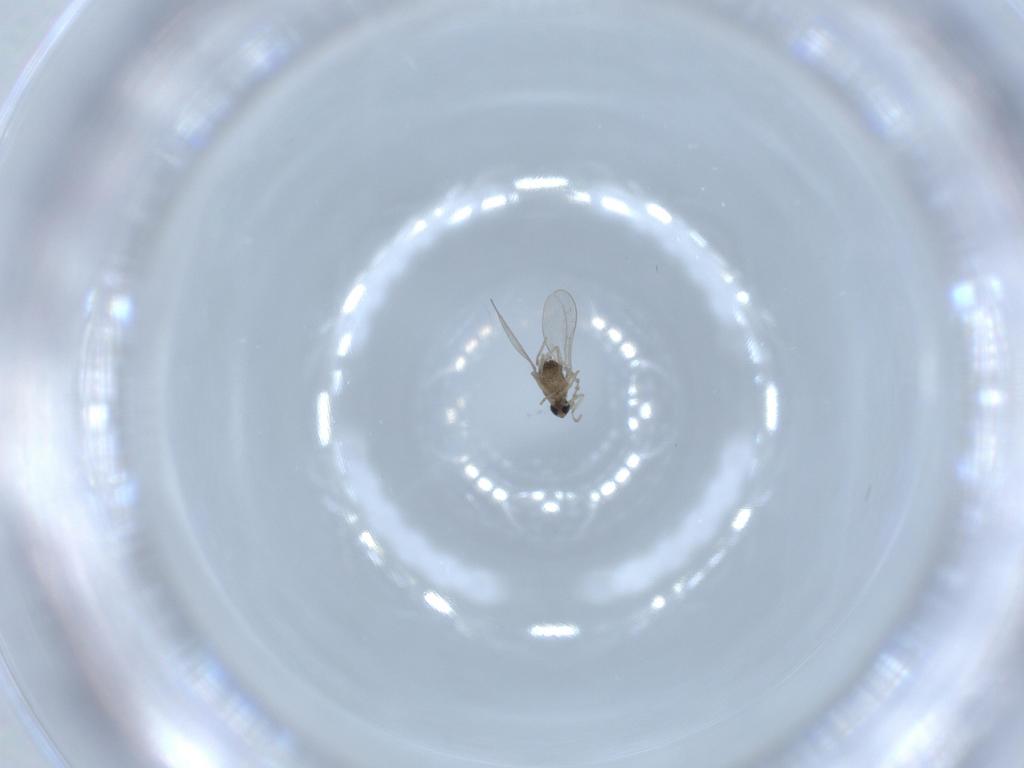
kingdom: Animalia
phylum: Arthropoda
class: Insecta
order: Diptera
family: Cecidomyiidae
